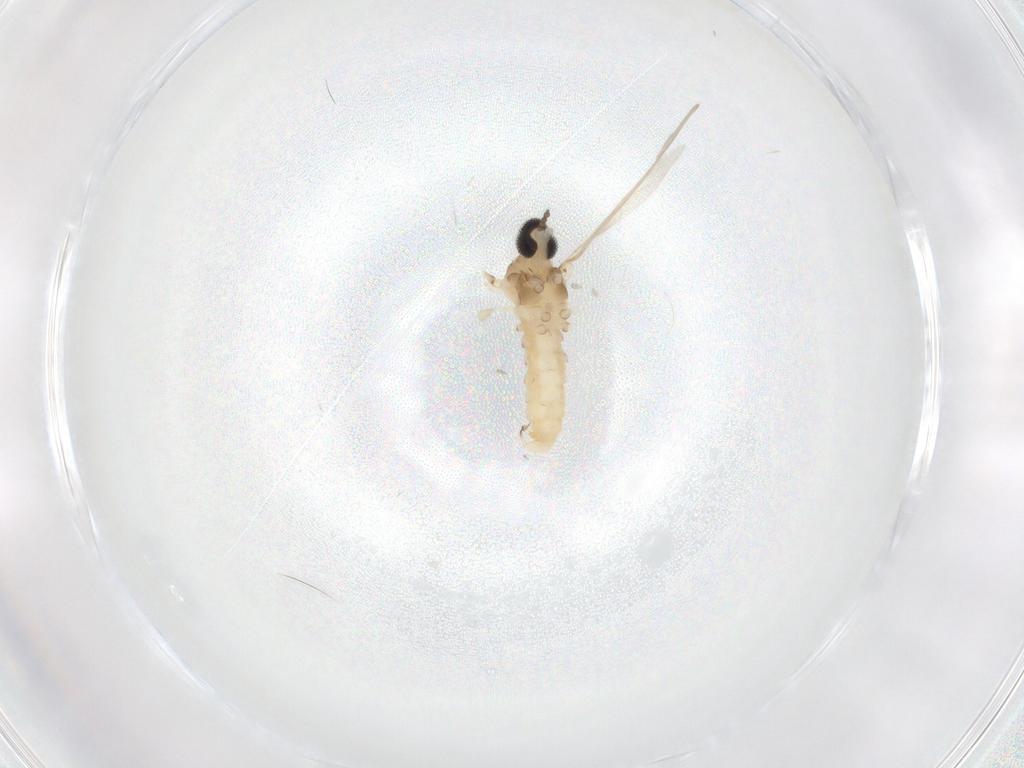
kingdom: Animalia
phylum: Arthropoda
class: Insecta
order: Diptera
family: Cecidomyiidae
